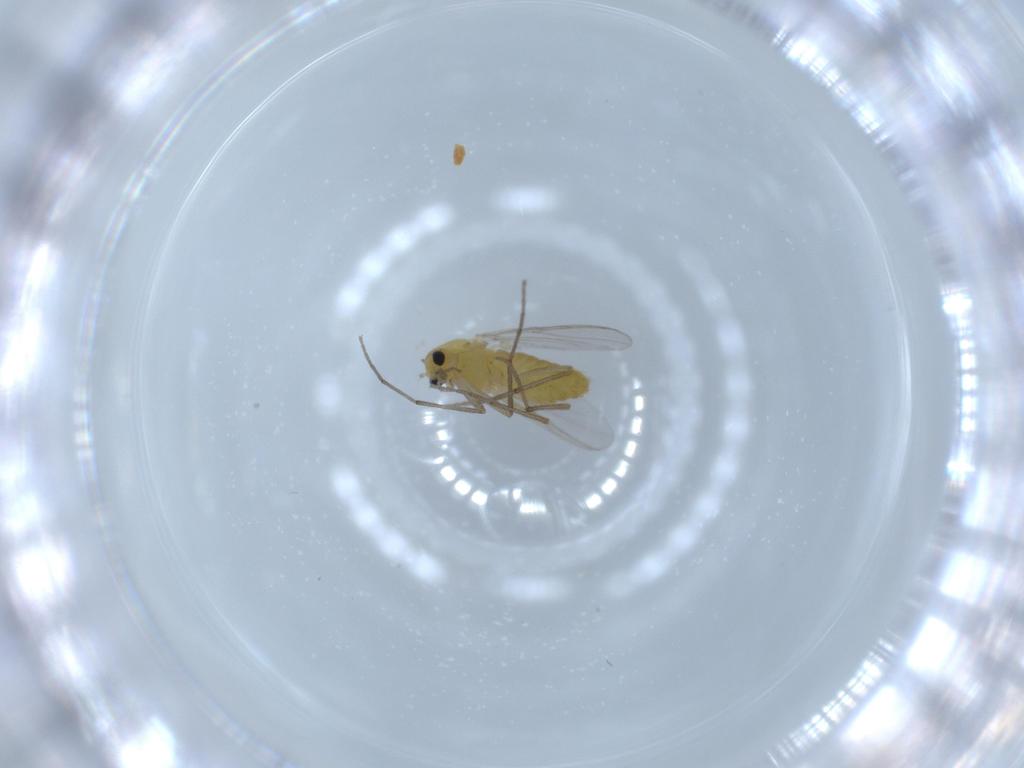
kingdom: Animalia
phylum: Arthropoda
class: Insecta
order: Diptera
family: Chironomidae
